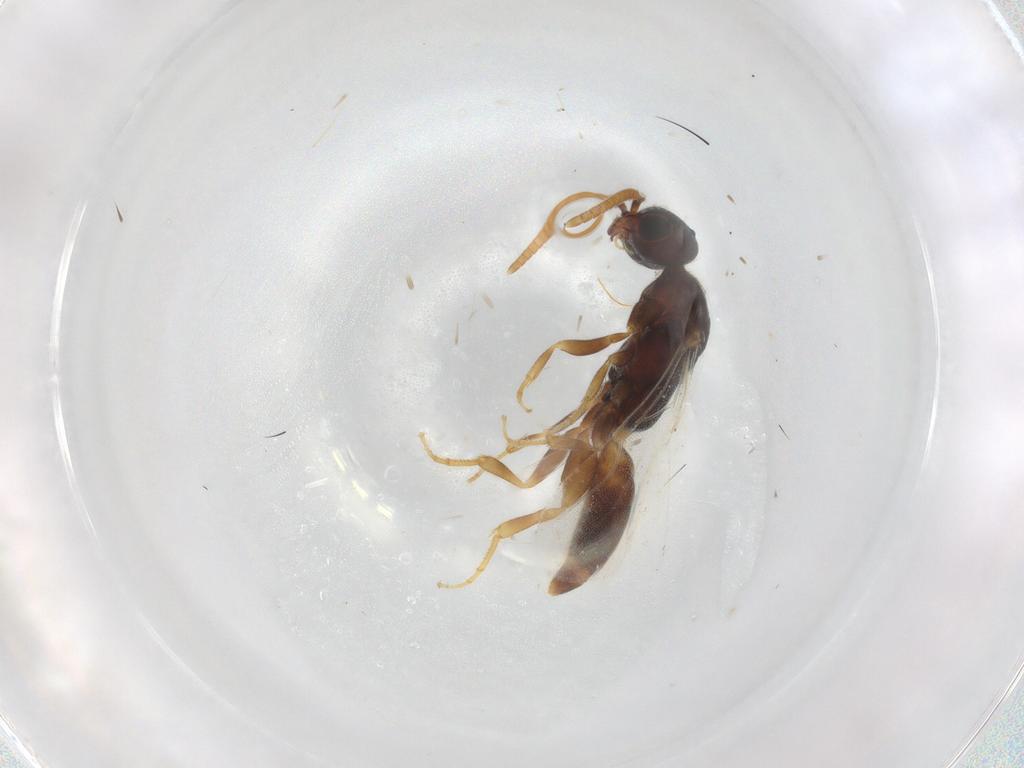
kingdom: Animalia
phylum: Arthropoda
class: Insecta
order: Hymenoptera
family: Bethylidae
